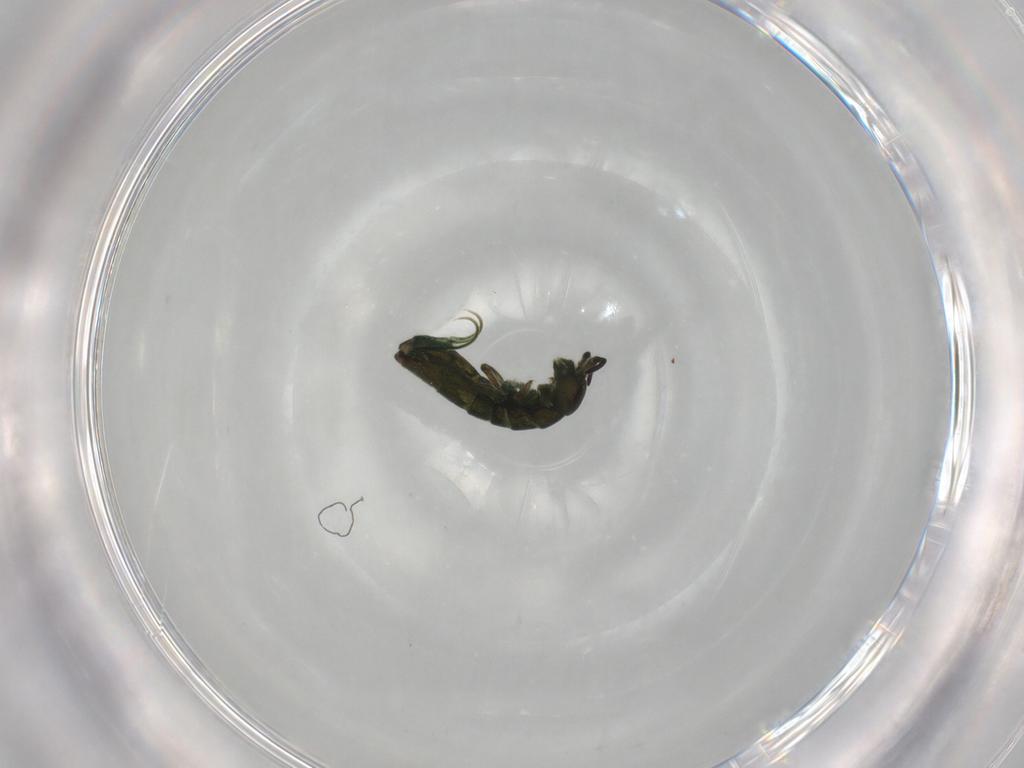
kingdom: Animalia
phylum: Arthropoda
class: Collembola
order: Entomobryomorpha
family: Isotomidae
